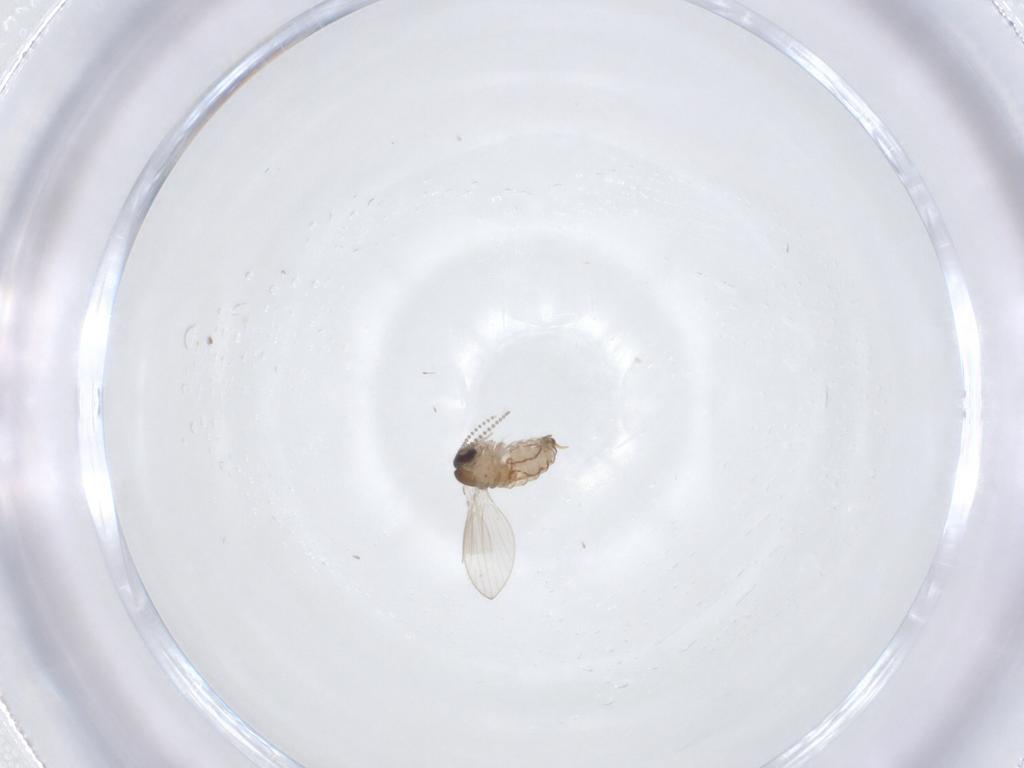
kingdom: Animalia
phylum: Arthropoda
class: Insecta
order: Diptera
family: Psychodidae
